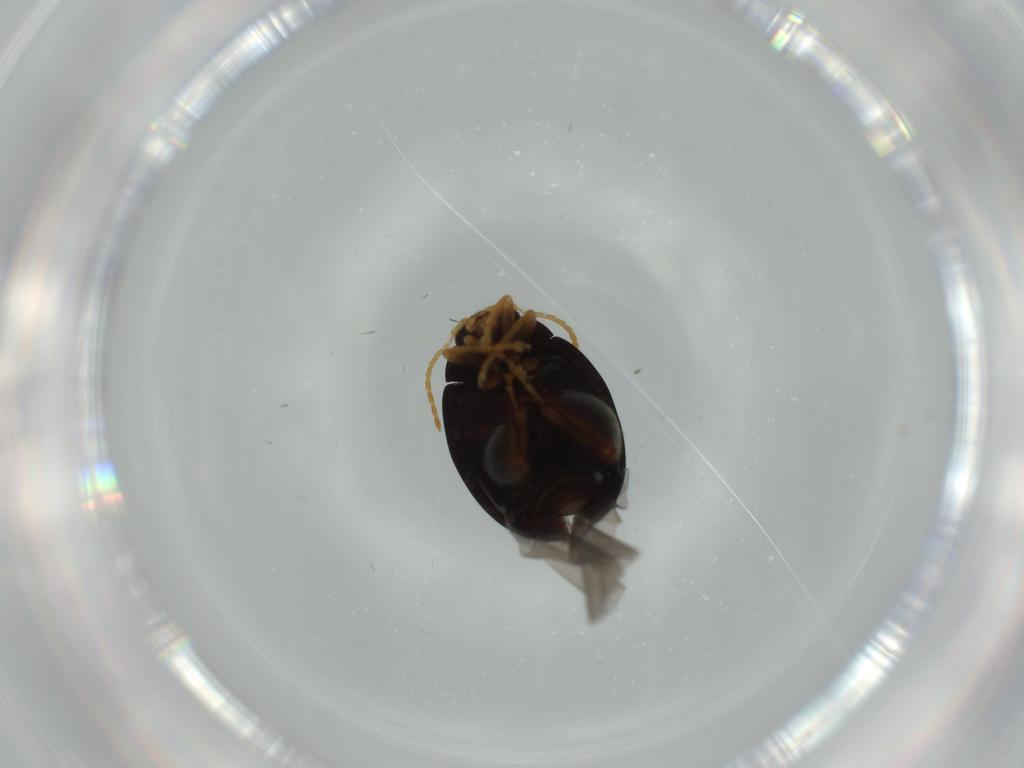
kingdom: Animalia
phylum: Arthropoda
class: Insecta
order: Coleoptera
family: Chrysomelidae
